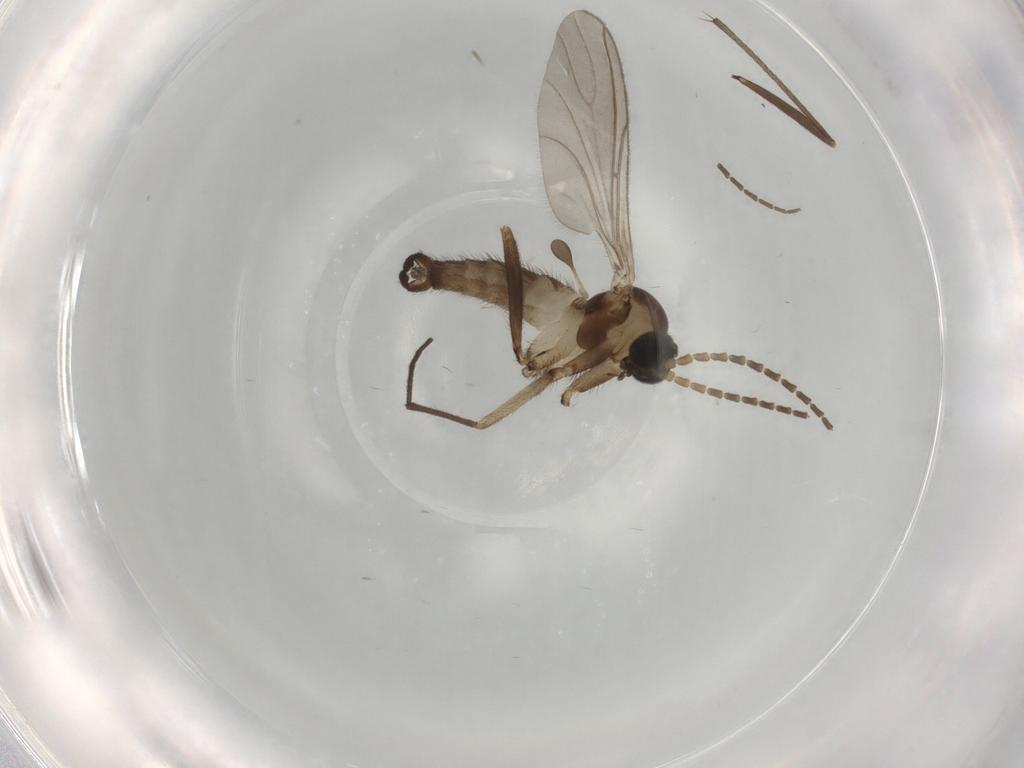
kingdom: Animalia
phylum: Arthropoda
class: Insecta
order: Diptera
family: Sciaridae
